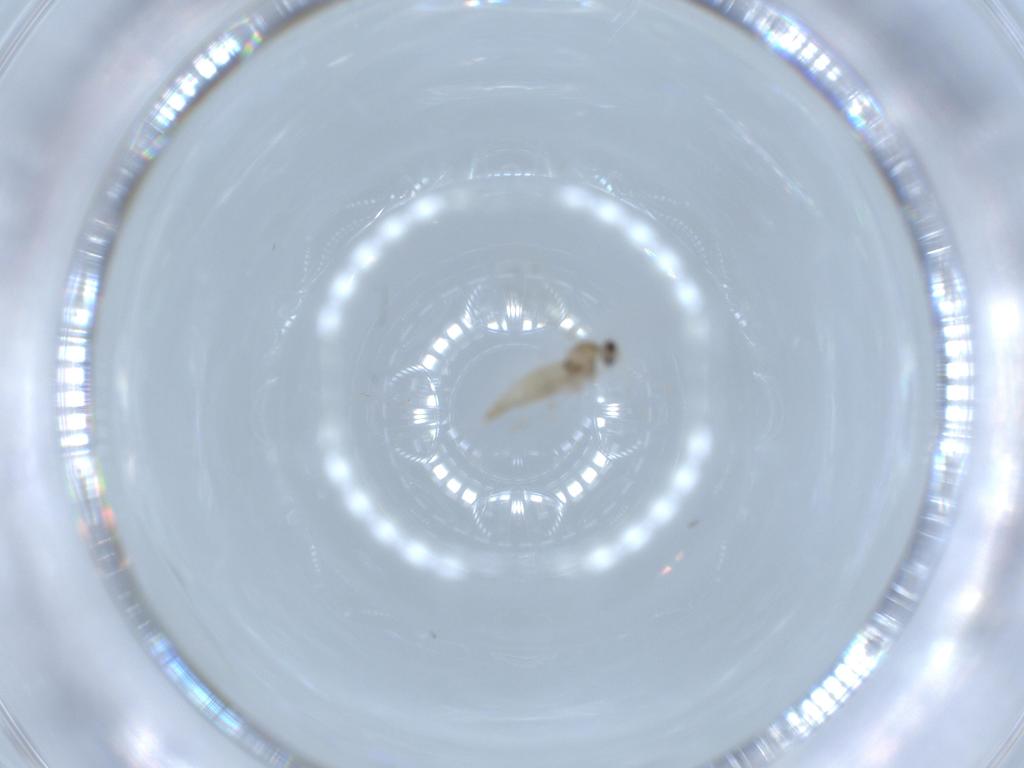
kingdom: Animalia
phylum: Arthropoda
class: Insecta
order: Diptera
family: Cecidomyiidae
